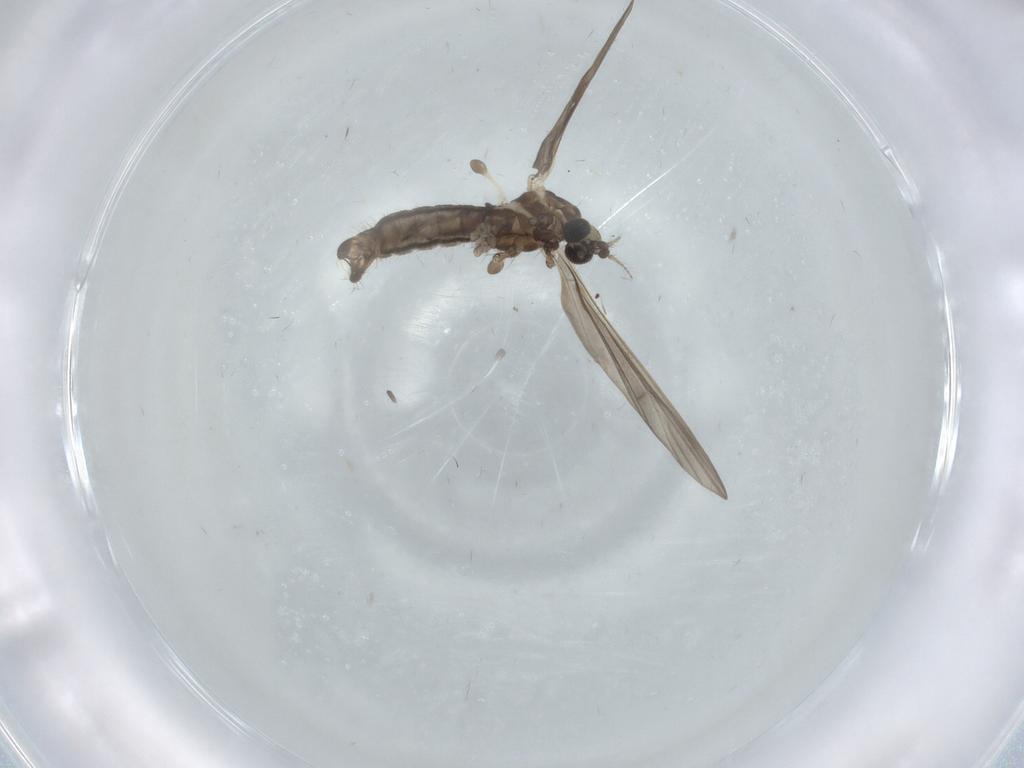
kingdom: Animalia
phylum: Arthropoda
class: Insecta
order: Diptera
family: Limoniidae
